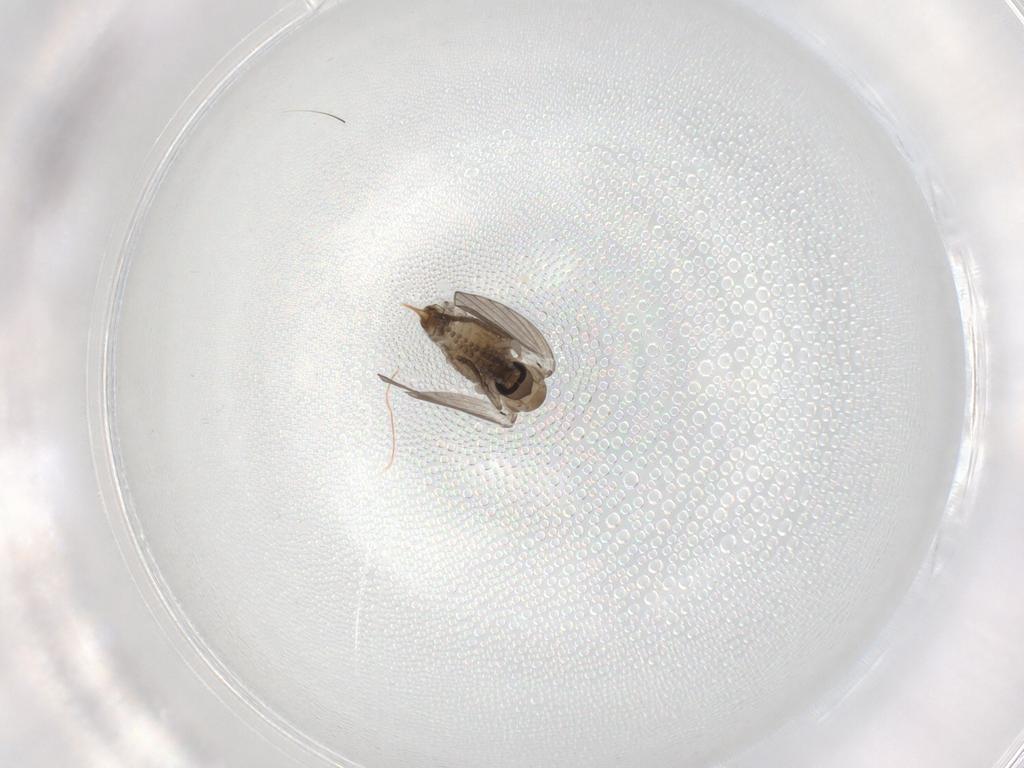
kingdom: Animalia
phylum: Arthropoda
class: Insecta
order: Diptera
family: Psychodidae
